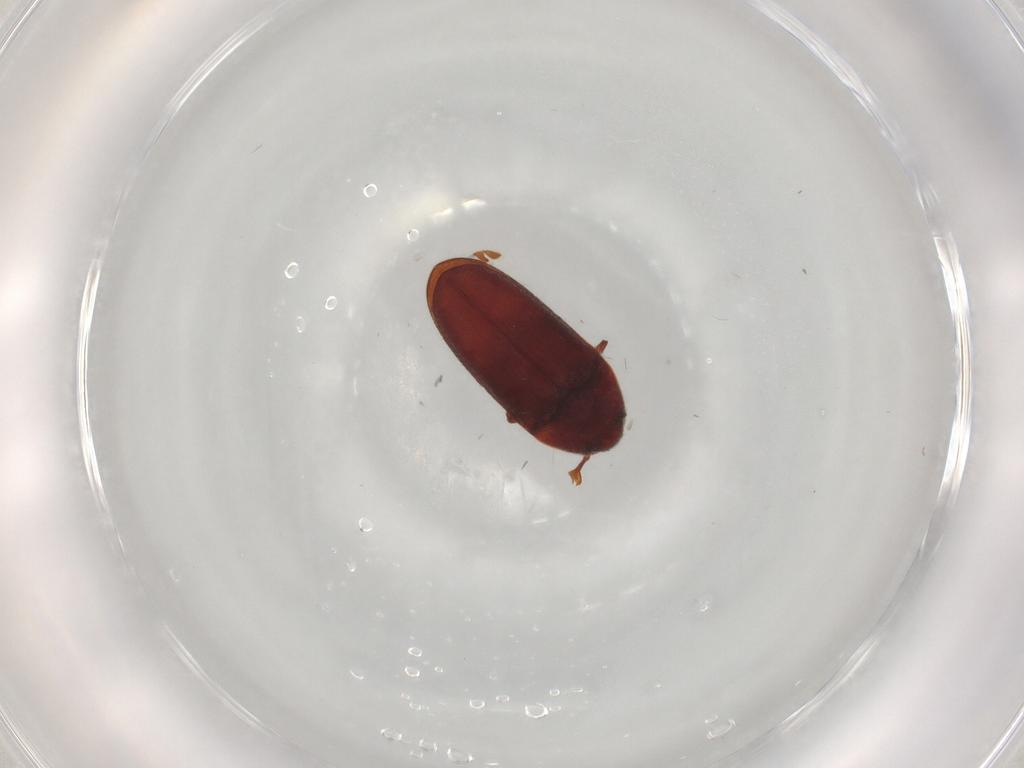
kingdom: Animalia
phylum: Arthropoda
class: Insecta
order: Coleoptera
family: Throscidae
